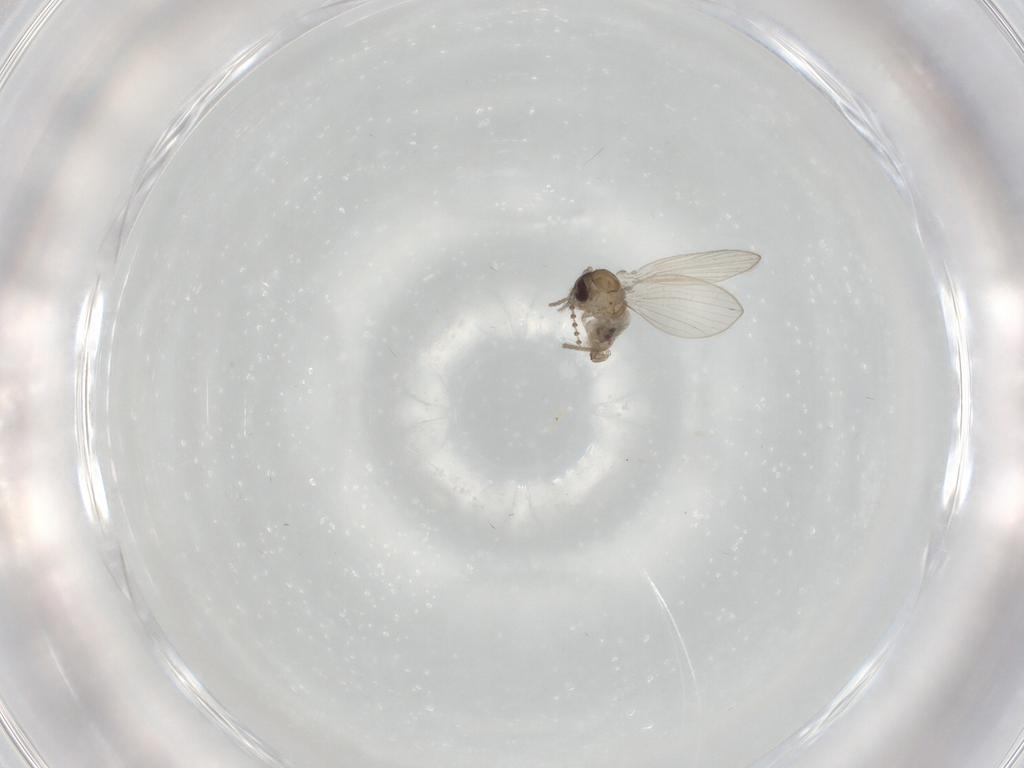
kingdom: Animalia
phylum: Arthropoda
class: Insecta
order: Diptera
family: Psychodidae
